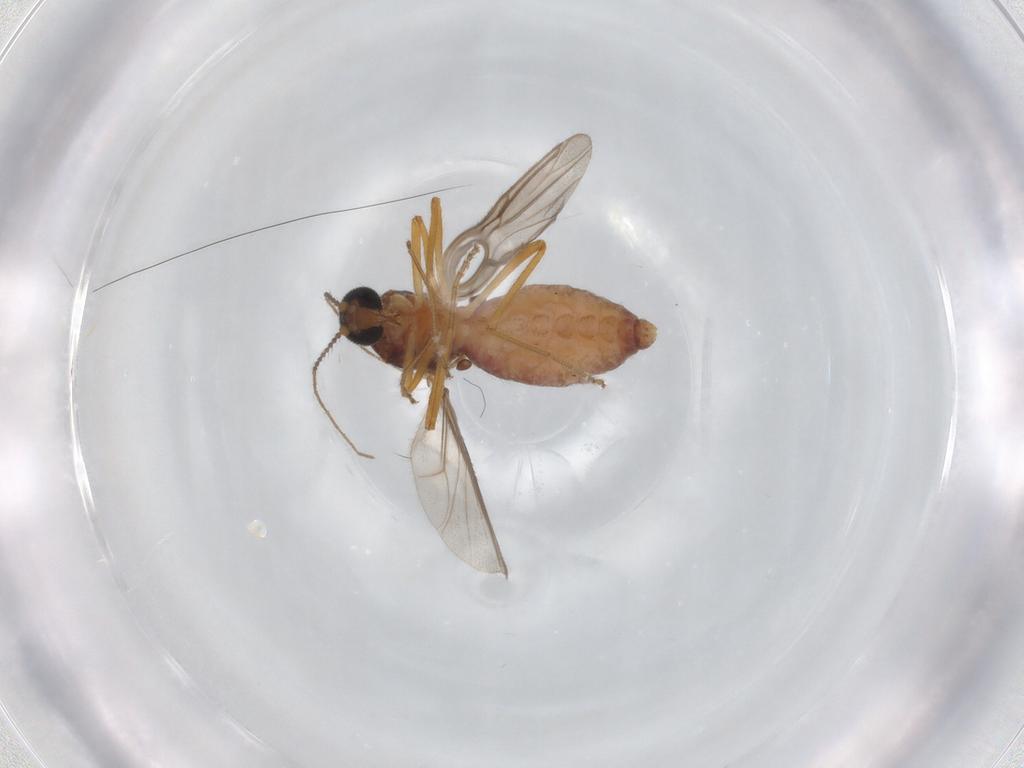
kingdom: Animalia
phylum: Arthropoda
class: Insecta
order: Diptera
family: Ceratopogonidae
